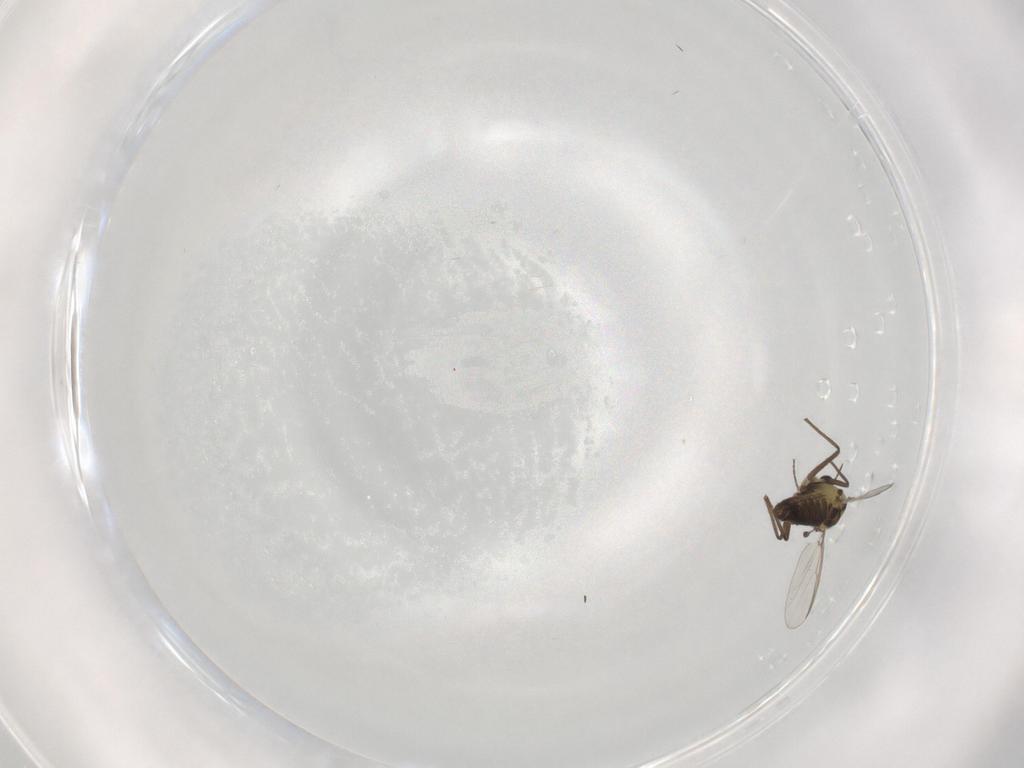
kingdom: Animalia
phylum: Arthropoda
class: Insecta
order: Diptera
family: Chironomidae
